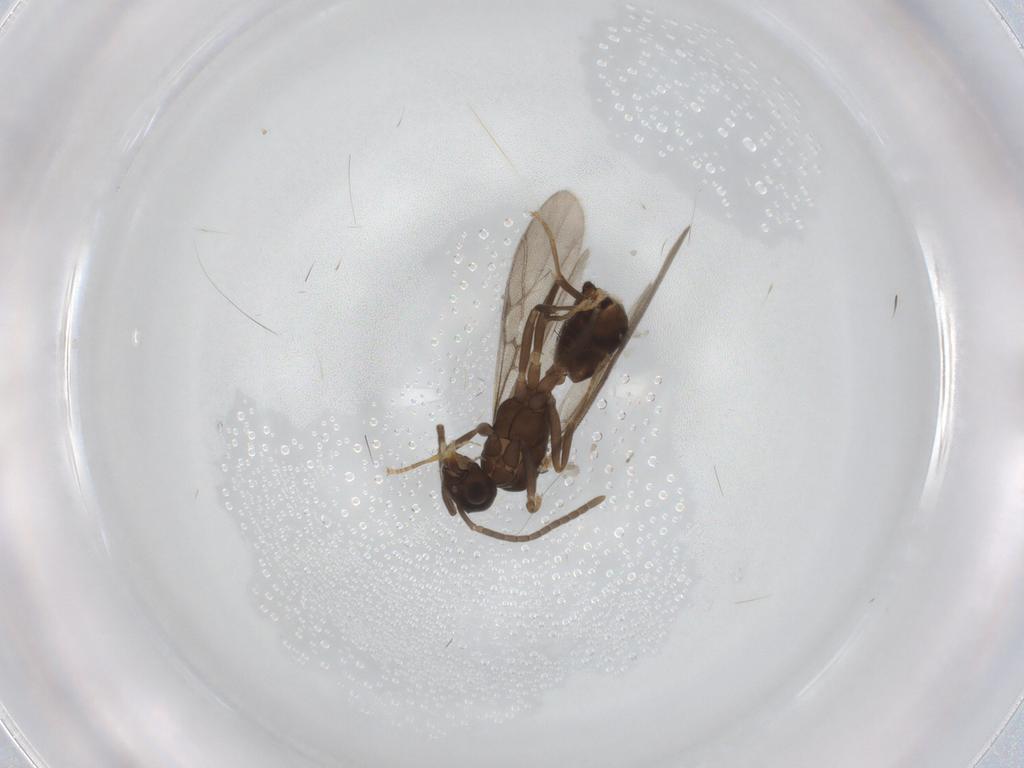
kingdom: Animalia
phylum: Arthropoda
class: Insecta
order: Hymenoptera
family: Formicidae
